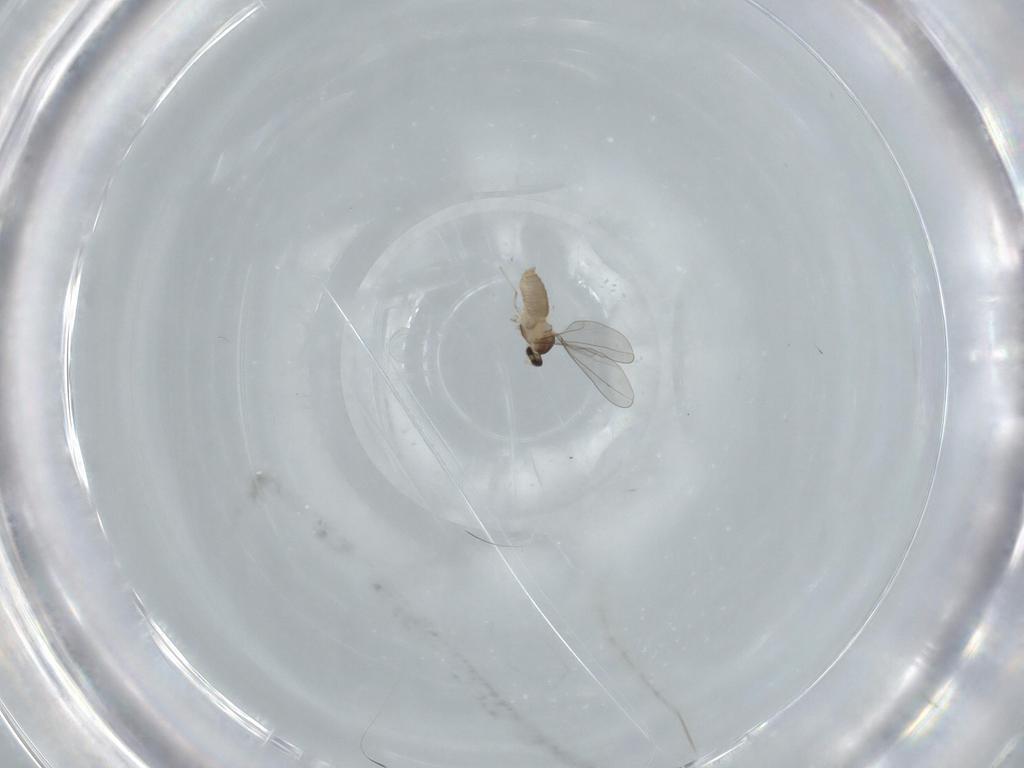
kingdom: Animalia
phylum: Arthropoda
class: Insecta
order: Diptera
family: Cecidomyiidae
